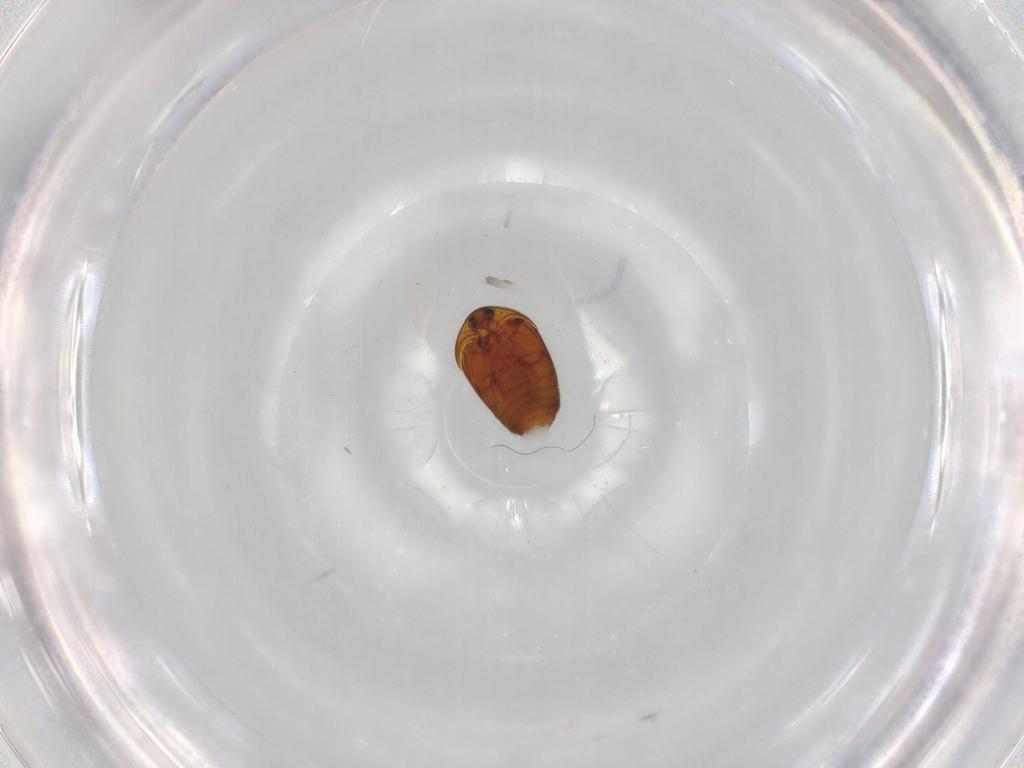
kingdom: Animalia
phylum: Arthropoda
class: Insecta
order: Coleoptera
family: Corylophidae
